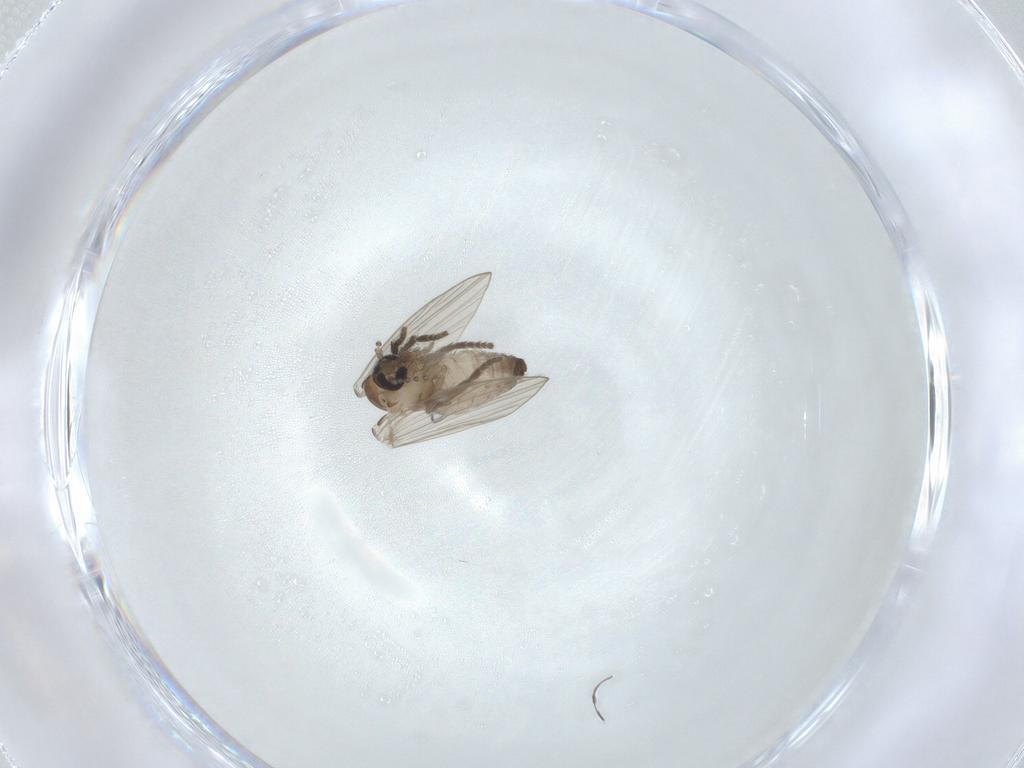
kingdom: Animalia
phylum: Arthropoda
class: Insecta
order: Diptera
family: Psychodidae
